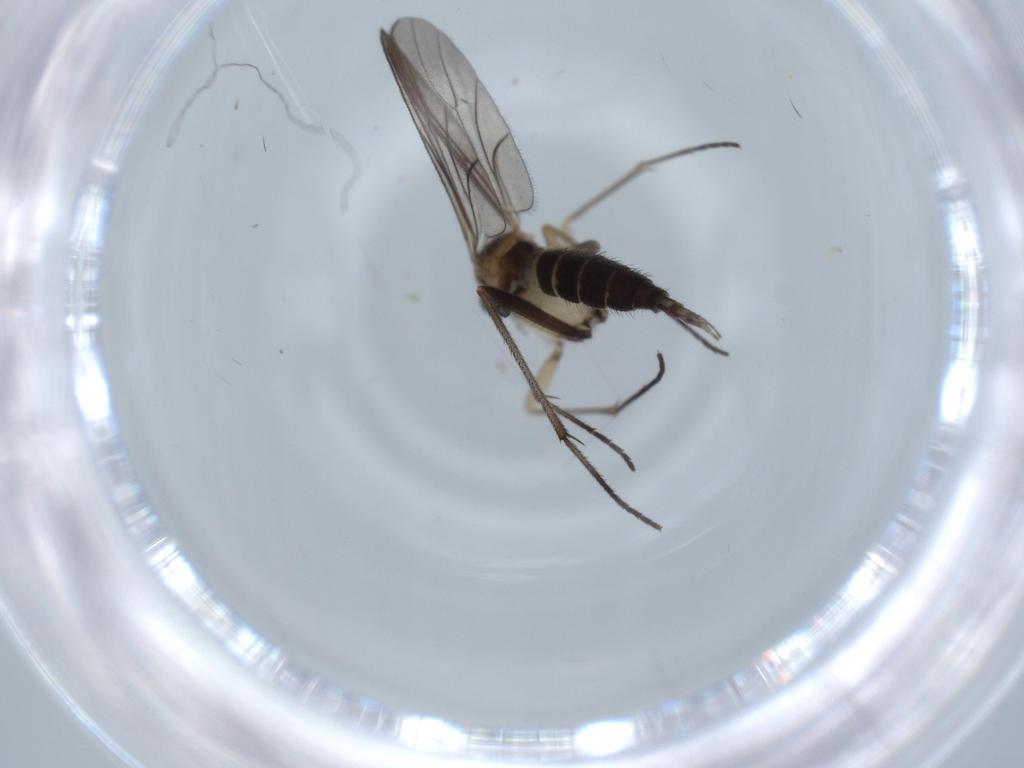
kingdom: Animalia
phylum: Arthropoda
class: Insecta
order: Diptera
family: Sciaridae
